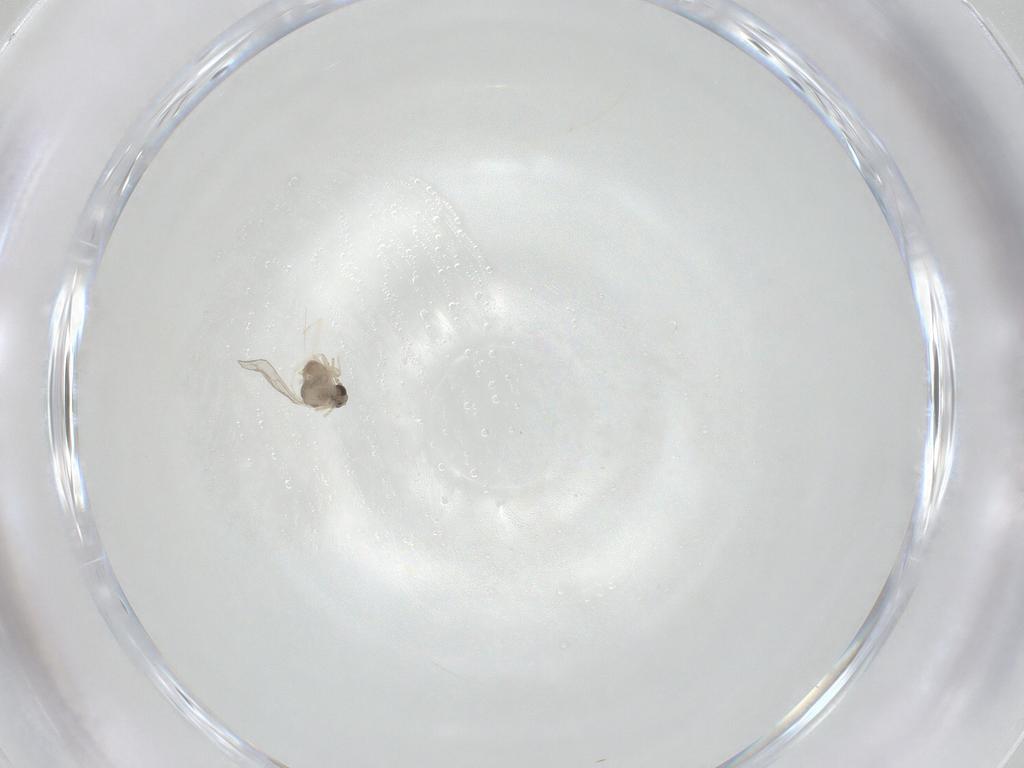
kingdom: Animalia
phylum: Arthropoda
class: Insecta
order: Diptera
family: Cecidomyiidae
